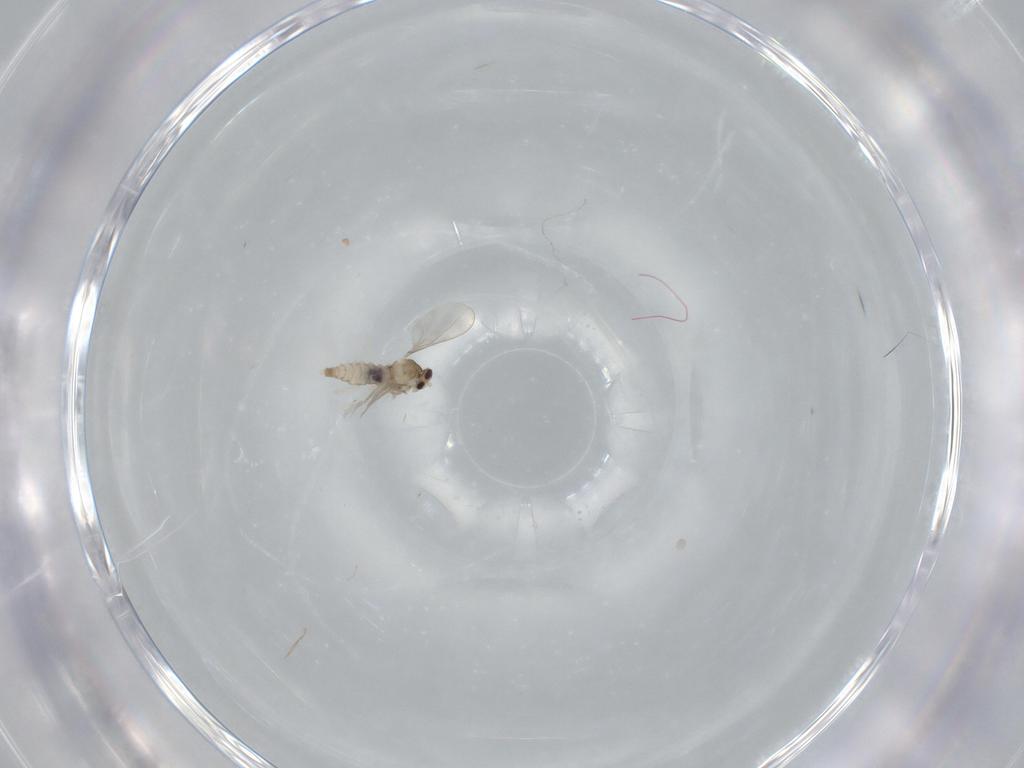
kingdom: Animalia
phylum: Arthropoda
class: Insecta
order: Diptera
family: Cecidomyiidae
